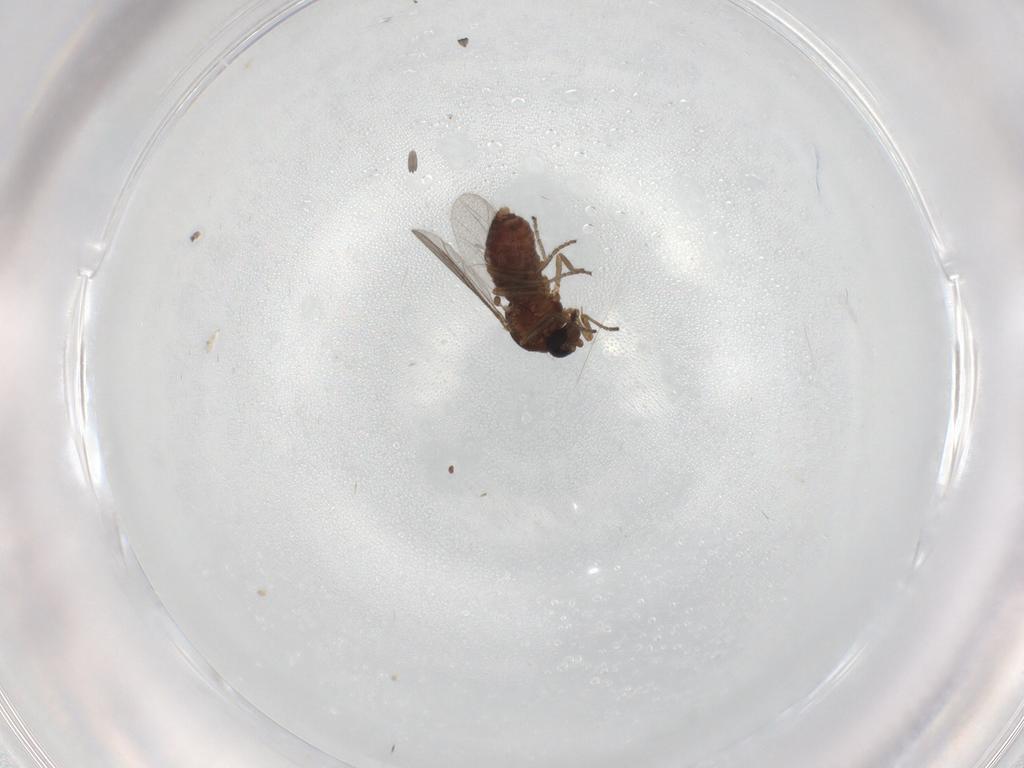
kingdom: Animalia
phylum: Arthropoda
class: Insecta
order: Diptera
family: Ceratopogonidae
